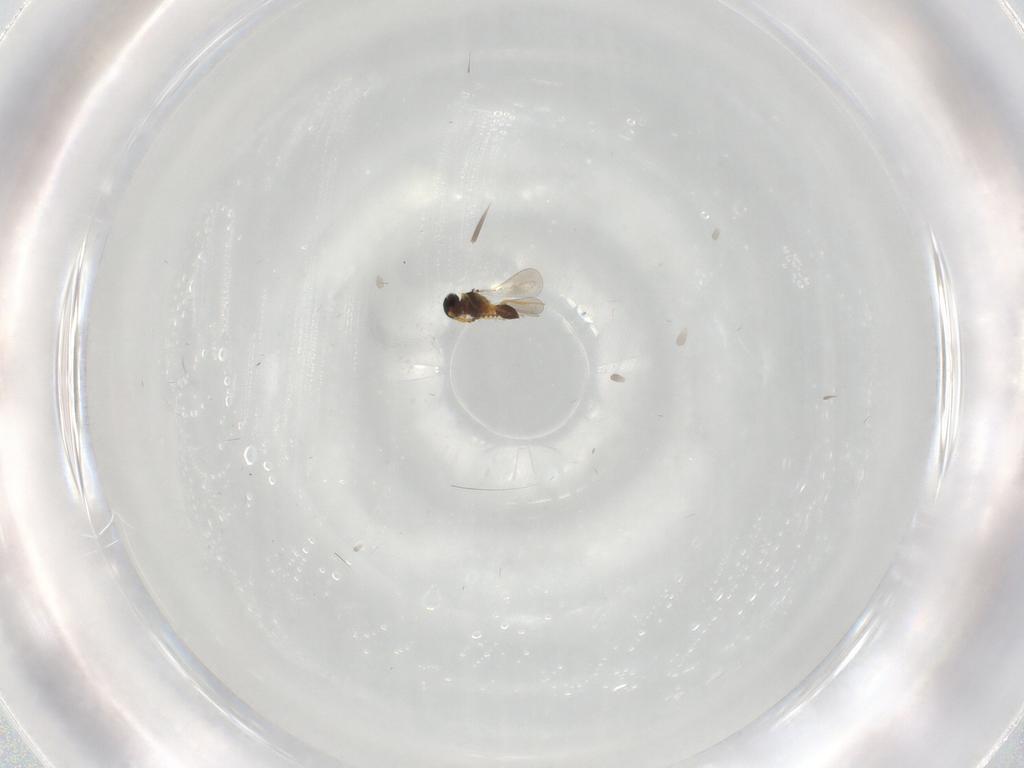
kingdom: Animalia
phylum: Arthropoda
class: Insecta
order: Hymenoptera
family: Platygastridae
